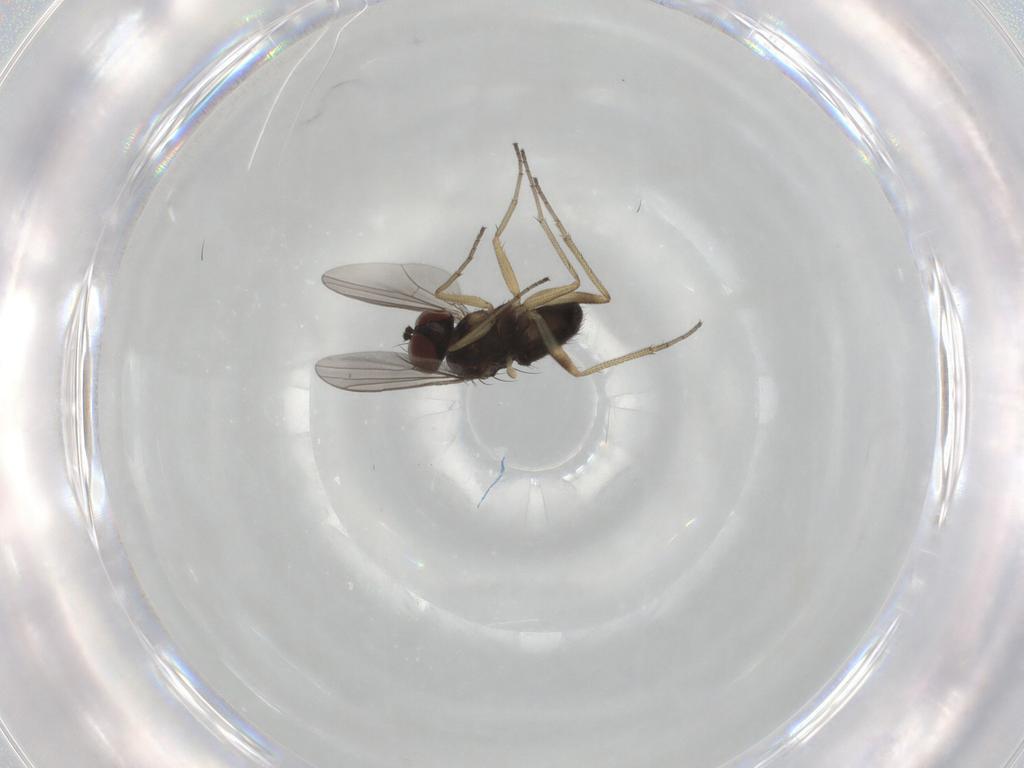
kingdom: Animalia
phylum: Arthropoda
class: Insecta
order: Diptera
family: Dolichopodidae
